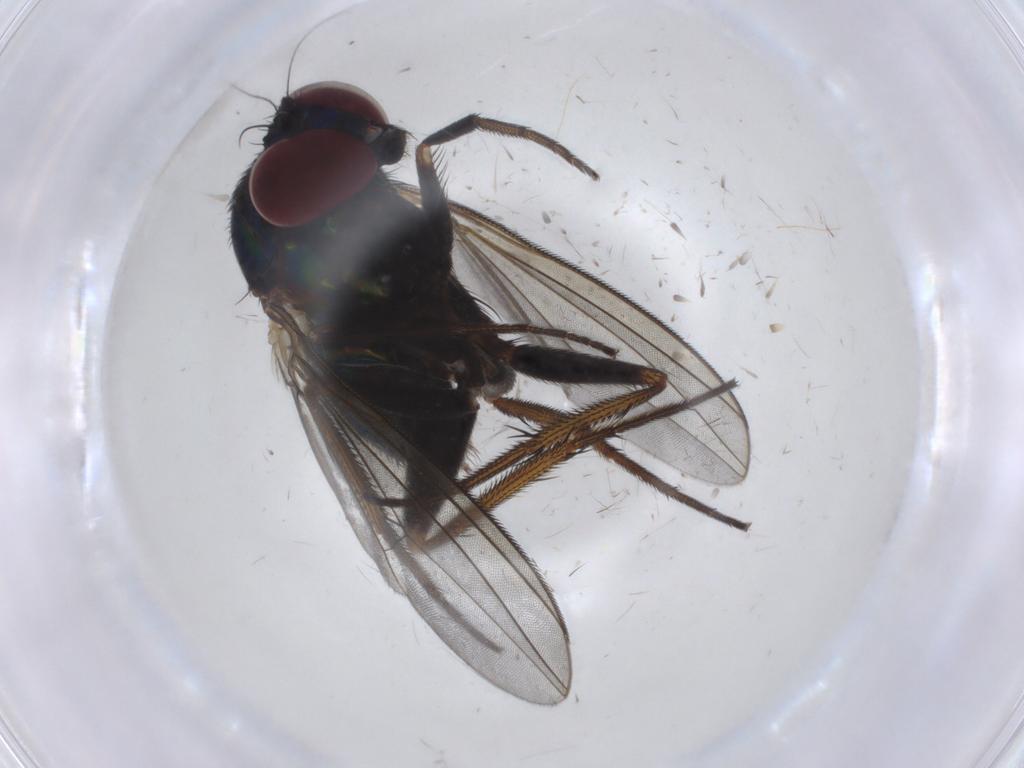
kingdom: Animalia
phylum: Arthropoda
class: Insecta
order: Diptera
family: Dolichopodidae
